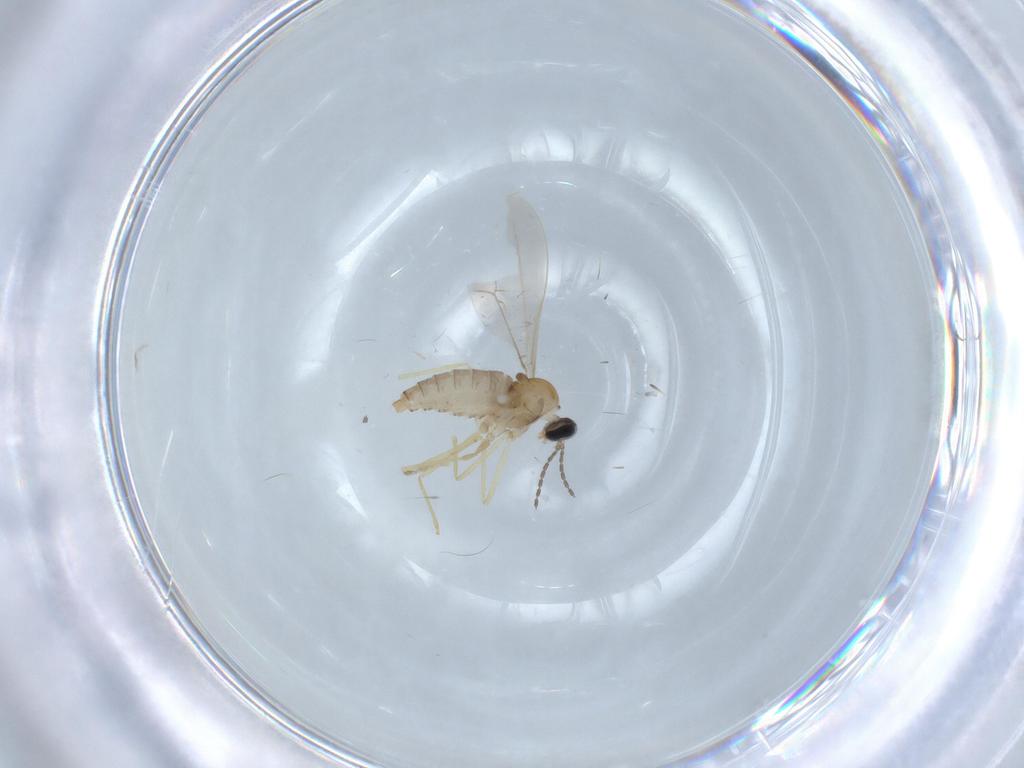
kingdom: Animalia
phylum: Arthropoda
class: Insecta
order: Diptera
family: Cecidomyiidae
